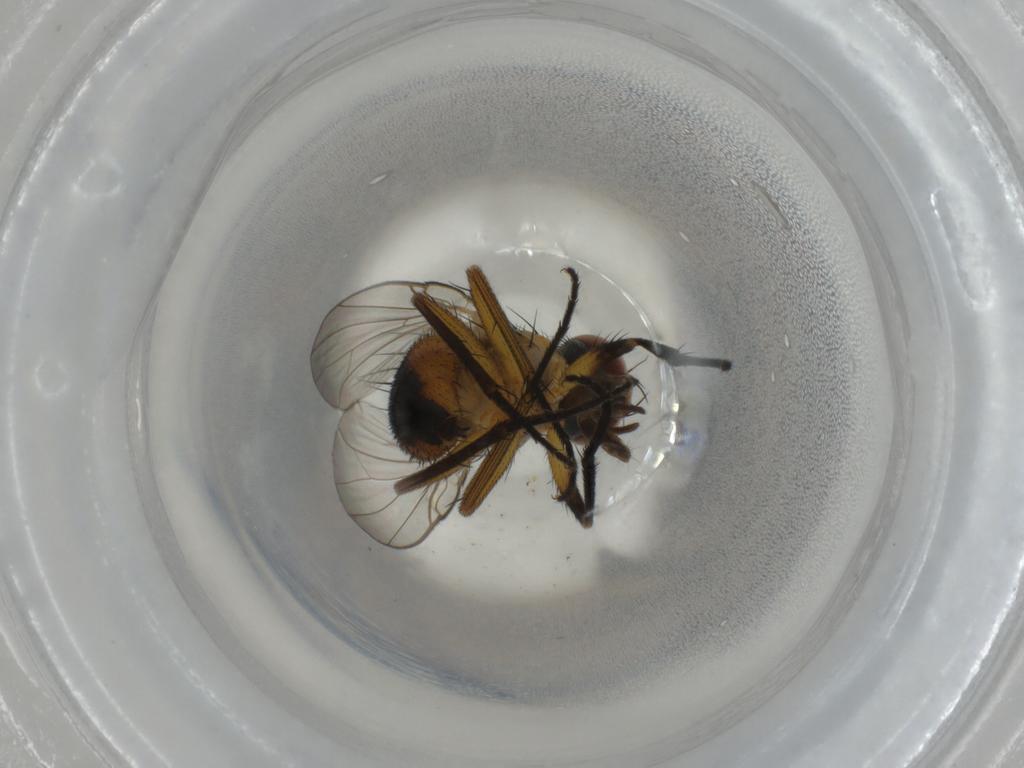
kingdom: Animalia
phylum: Arthropoda
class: Insecta
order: Diptera
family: Muscidae
